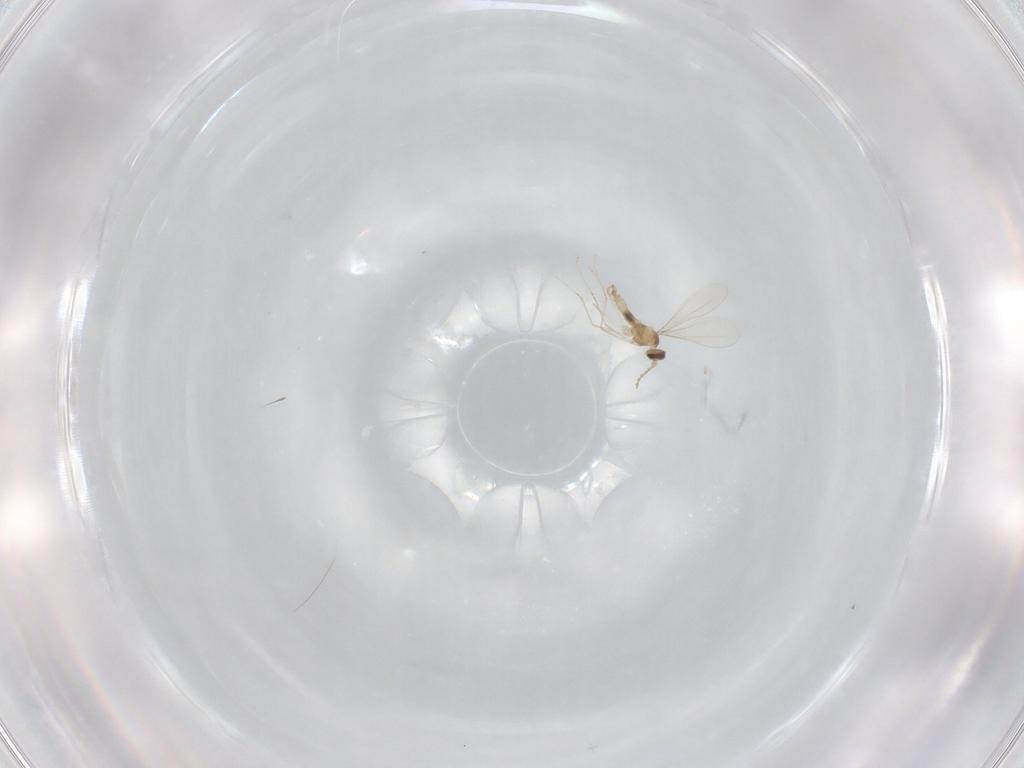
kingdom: Animalia
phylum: Arthropoda
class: Insecta
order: Diptera
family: Cecidomyiidae
